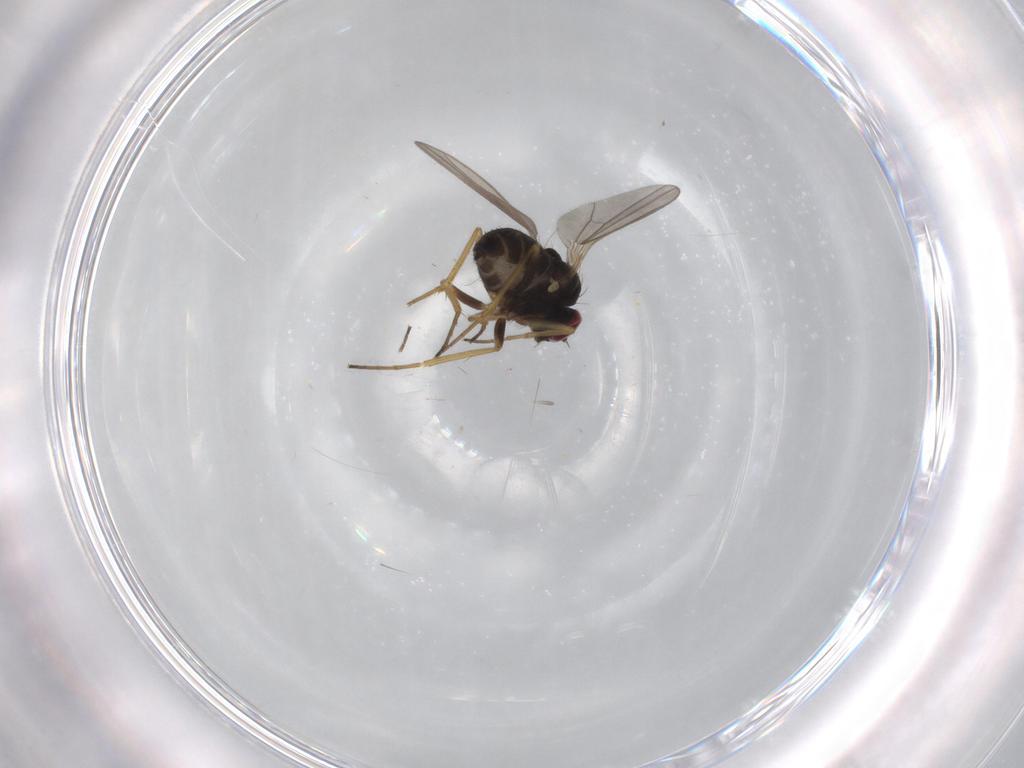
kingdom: Animalia
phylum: Arthropoda
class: Insecta
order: Diptera
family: Dolichopodidae
